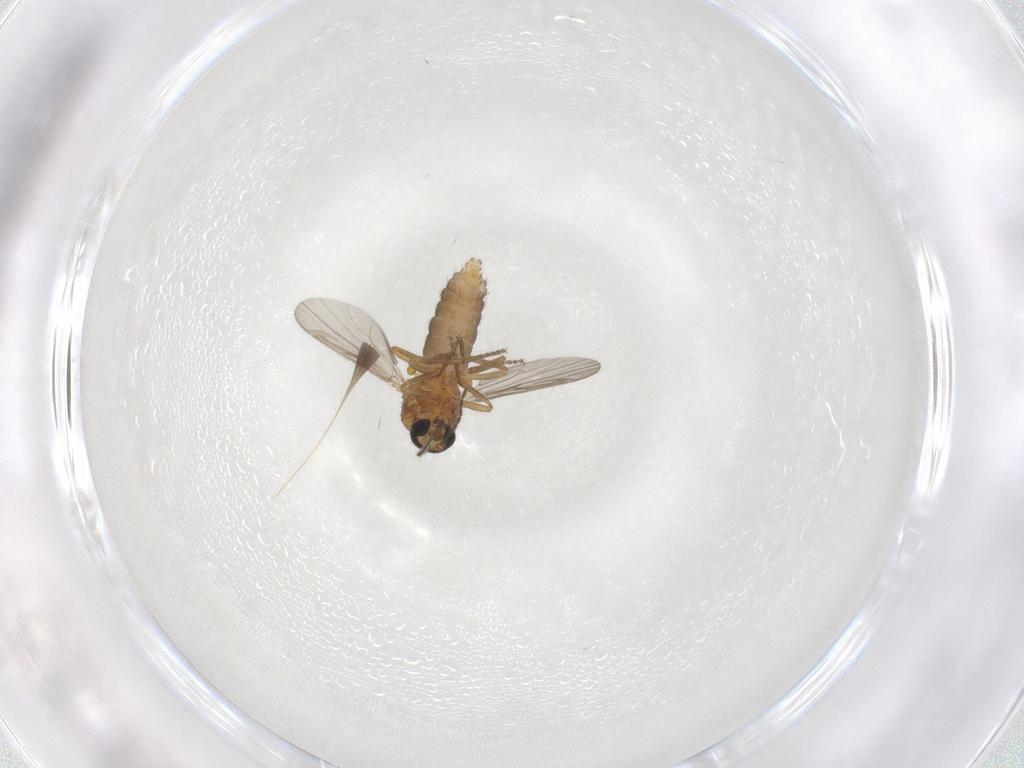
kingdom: Animalia
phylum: Arthropoda
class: Insecta
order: Diptera
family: Ceratopogonidae
